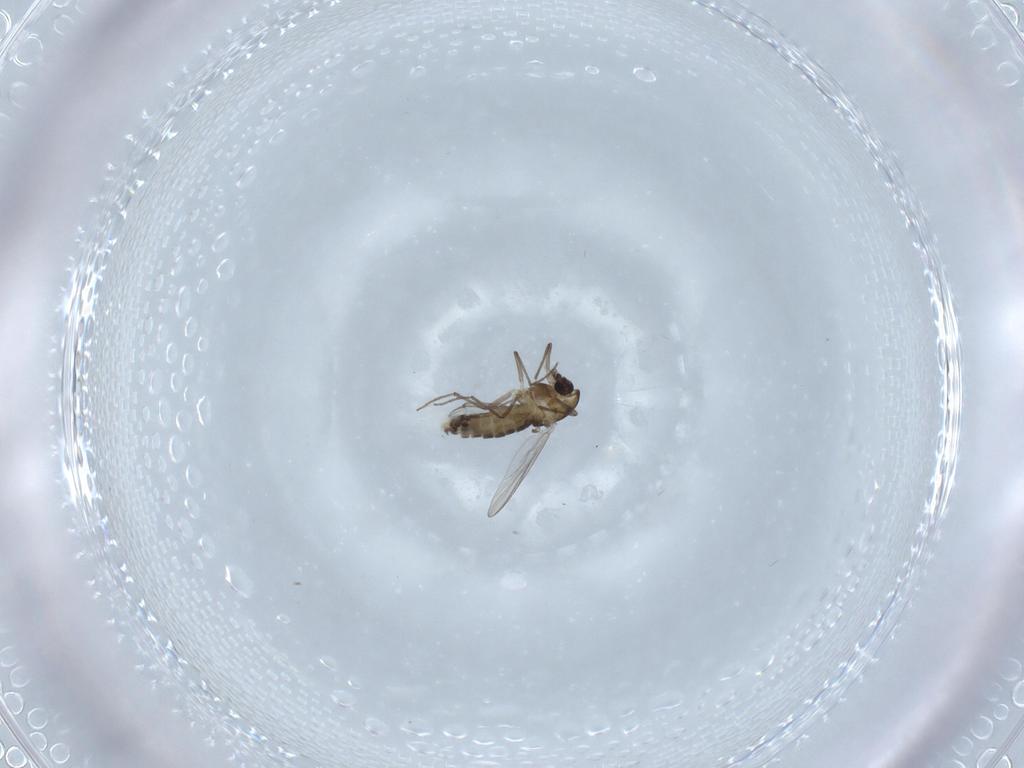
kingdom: Animalia
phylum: Arthropoda
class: Insecta
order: Diptera
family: Chironomidae
